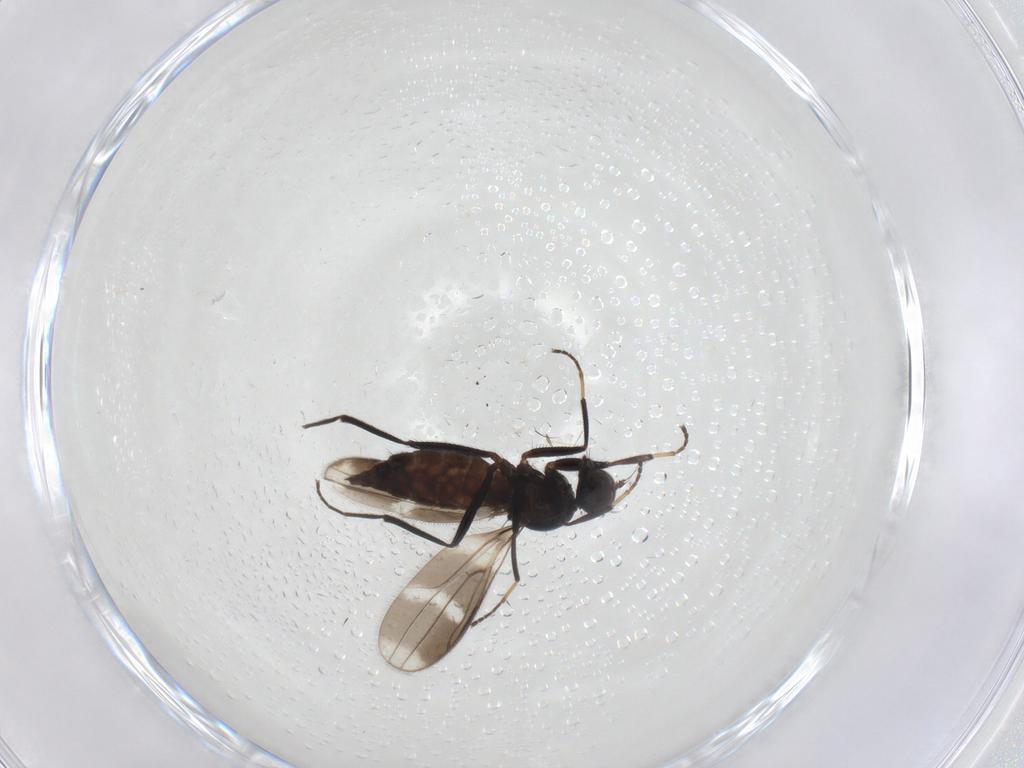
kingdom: Animalia
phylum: Arthropoda
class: Insecta
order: Diptera
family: Hybotidae
